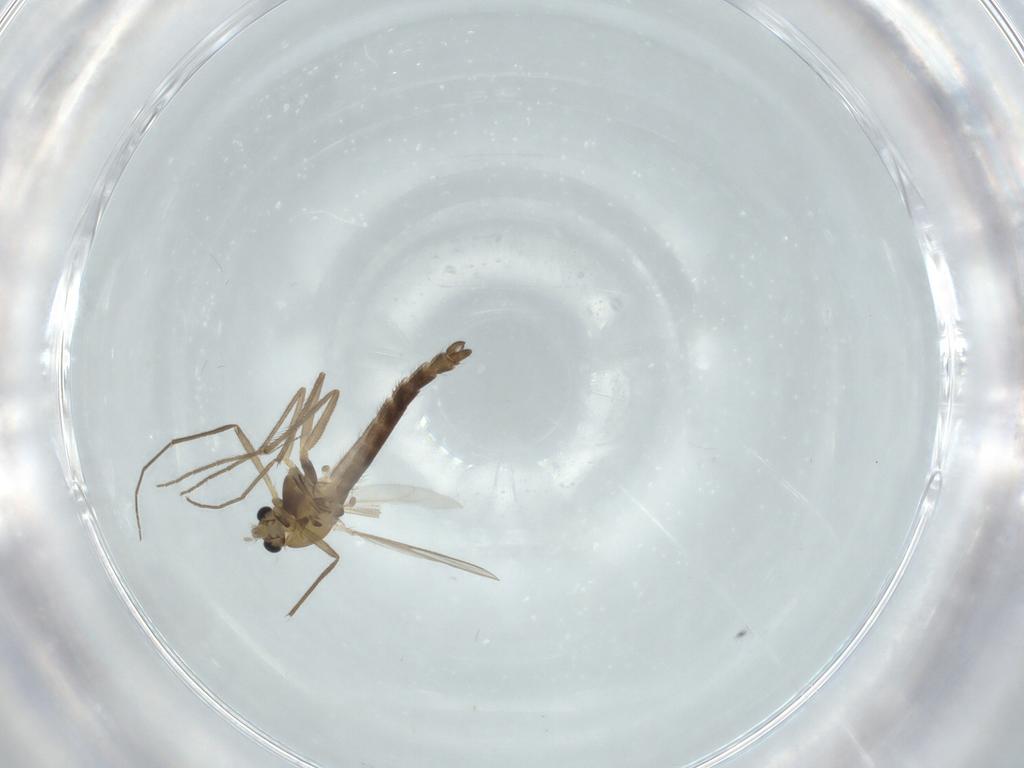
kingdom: Animalia
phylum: Arthropoda
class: Insecta
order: Diptera
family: Chironomidae
